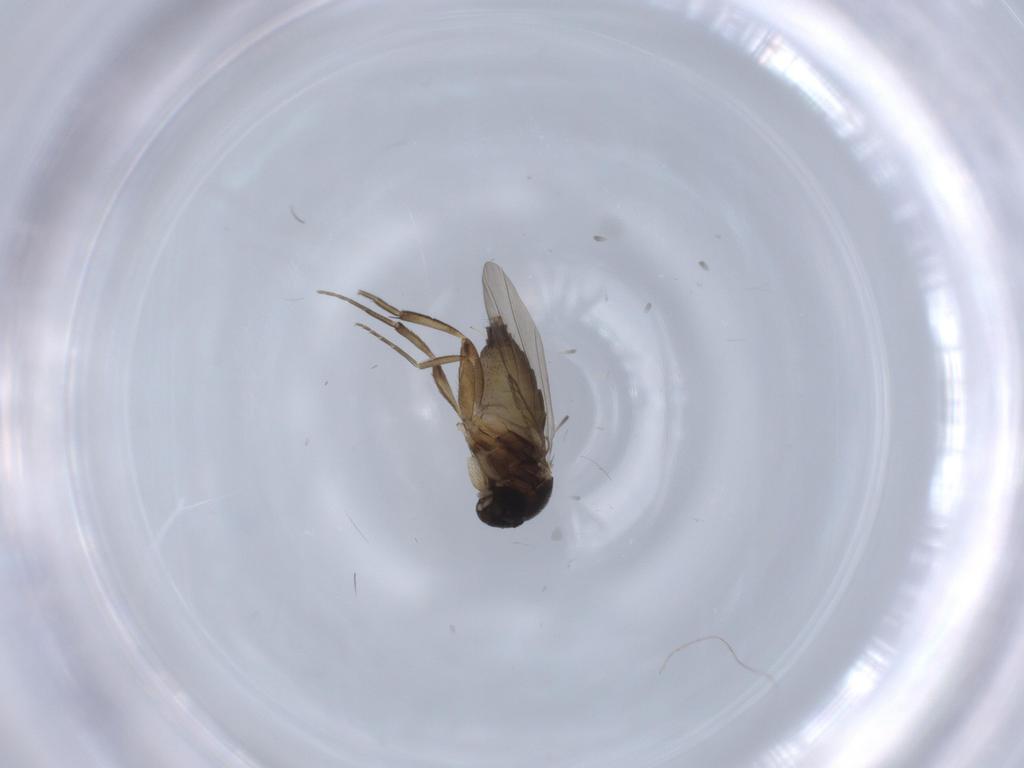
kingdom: Animalia
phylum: Arthropoda
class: Insecta
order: Diptera
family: Phoridae
